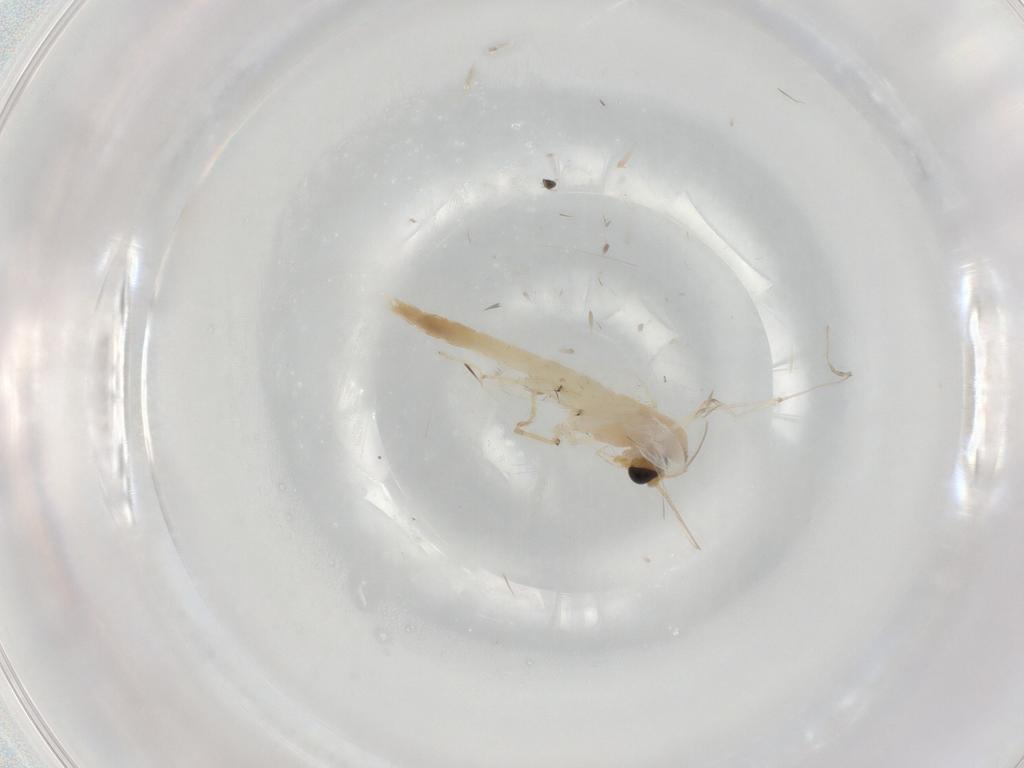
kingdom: Animalia
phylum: Arthropoda
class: Insecta
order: Diptera
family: Chironomidae
